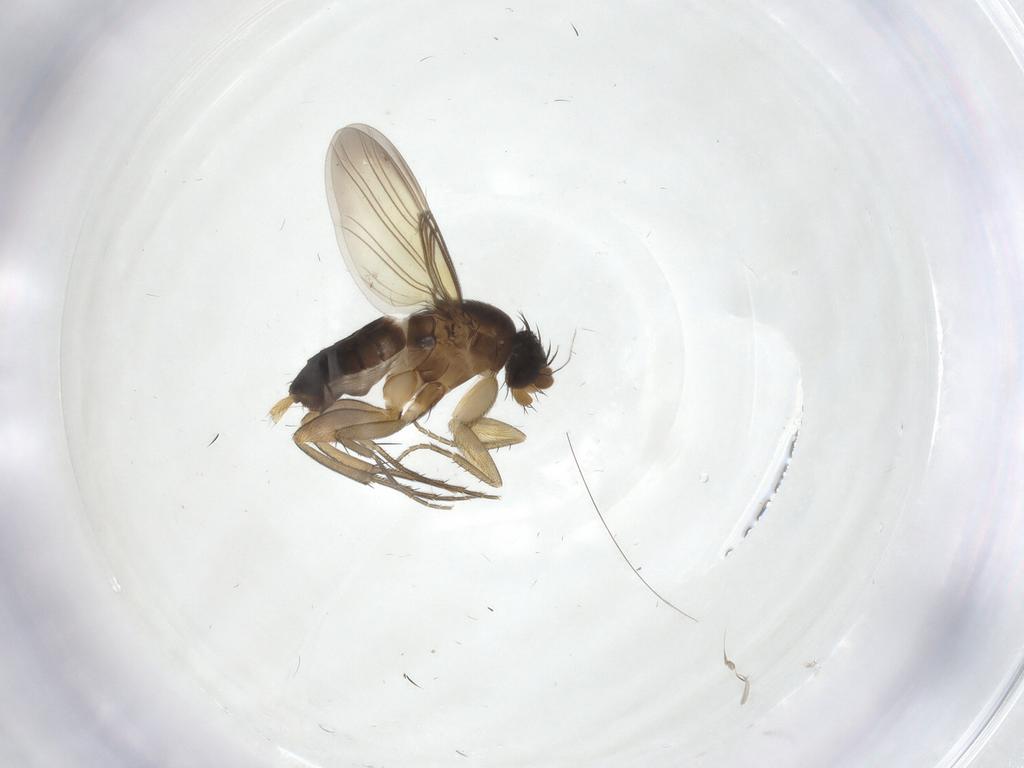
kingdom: Animalia
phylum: Arthropoda
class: Insecta
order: Diptera
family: Phoridae
